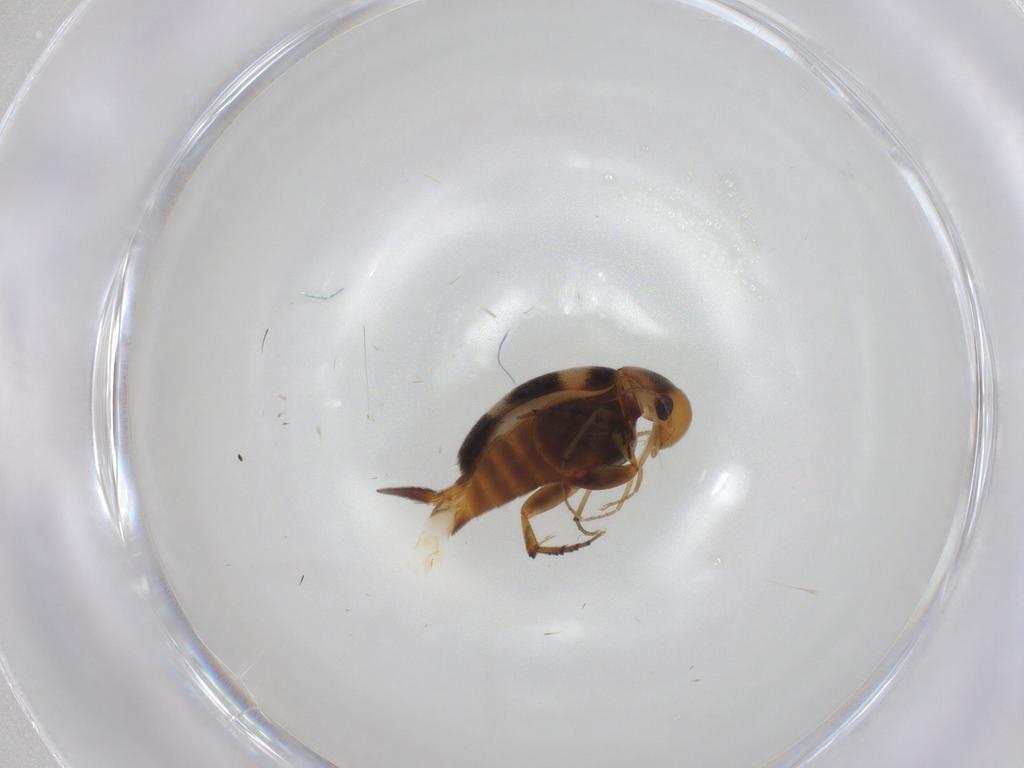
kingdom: Animalia
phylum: Arthropoda
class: Insecta
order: Coleoptera
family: Mordellidae
